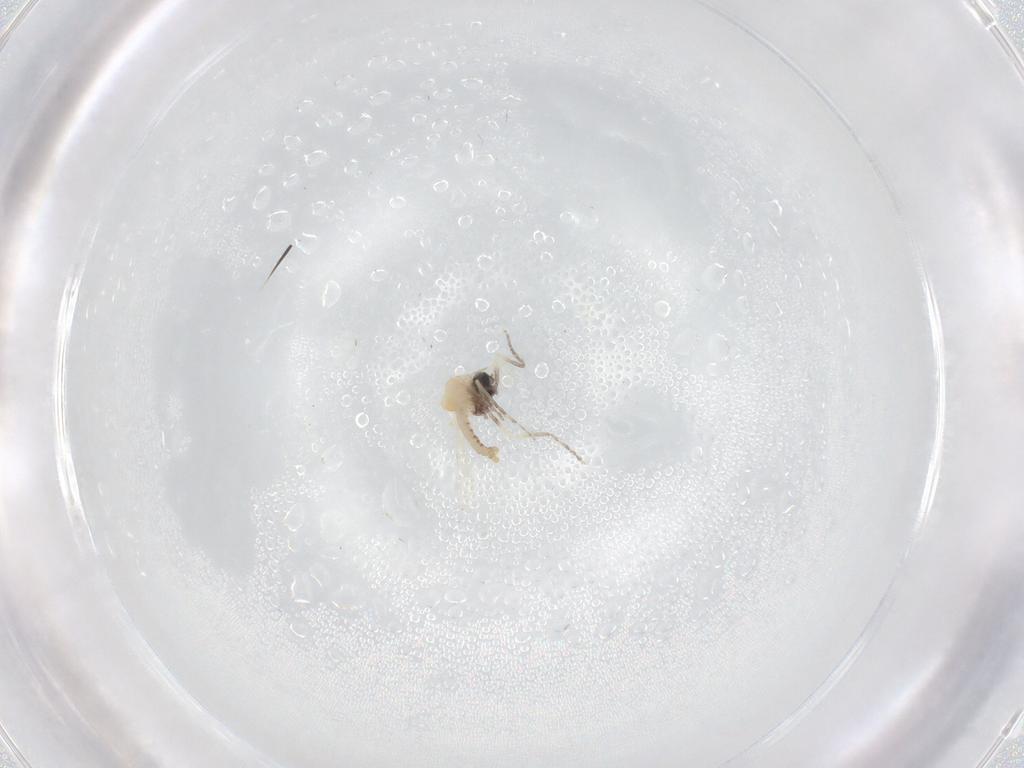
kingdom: Animalia
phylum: Arthropoda
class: Insecta
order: Diptera
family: Ceratopogonidae
